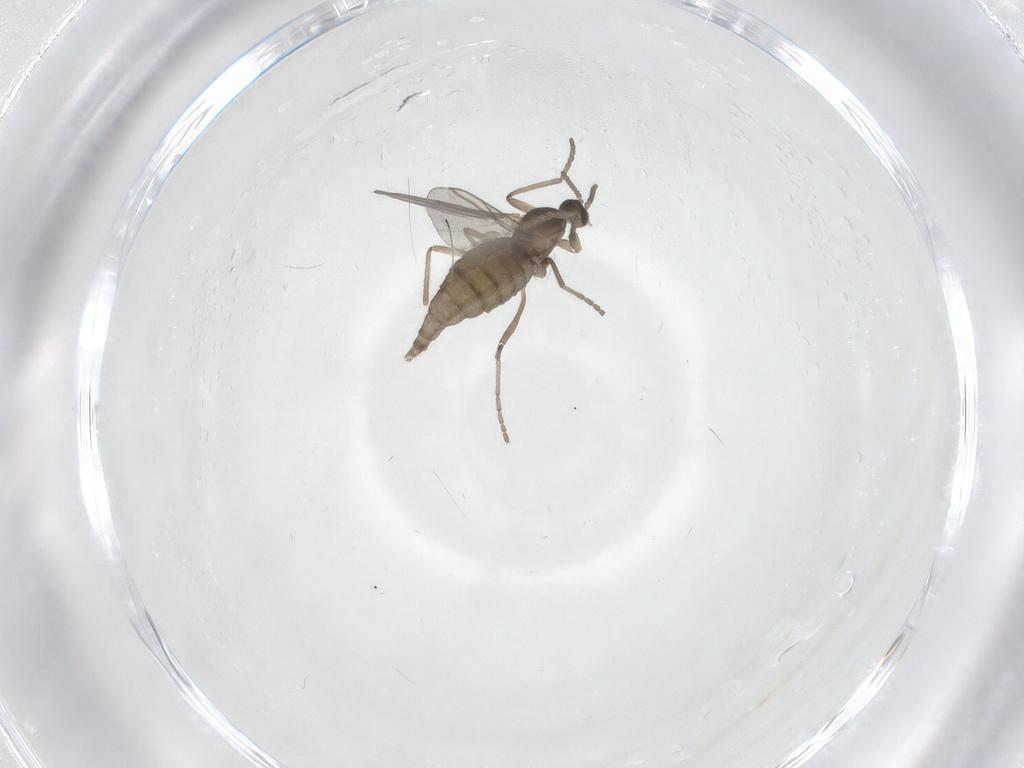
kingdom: Animalia
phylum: Arthropoda
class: Insecta
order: Diptera
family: Cecidomyiidae
